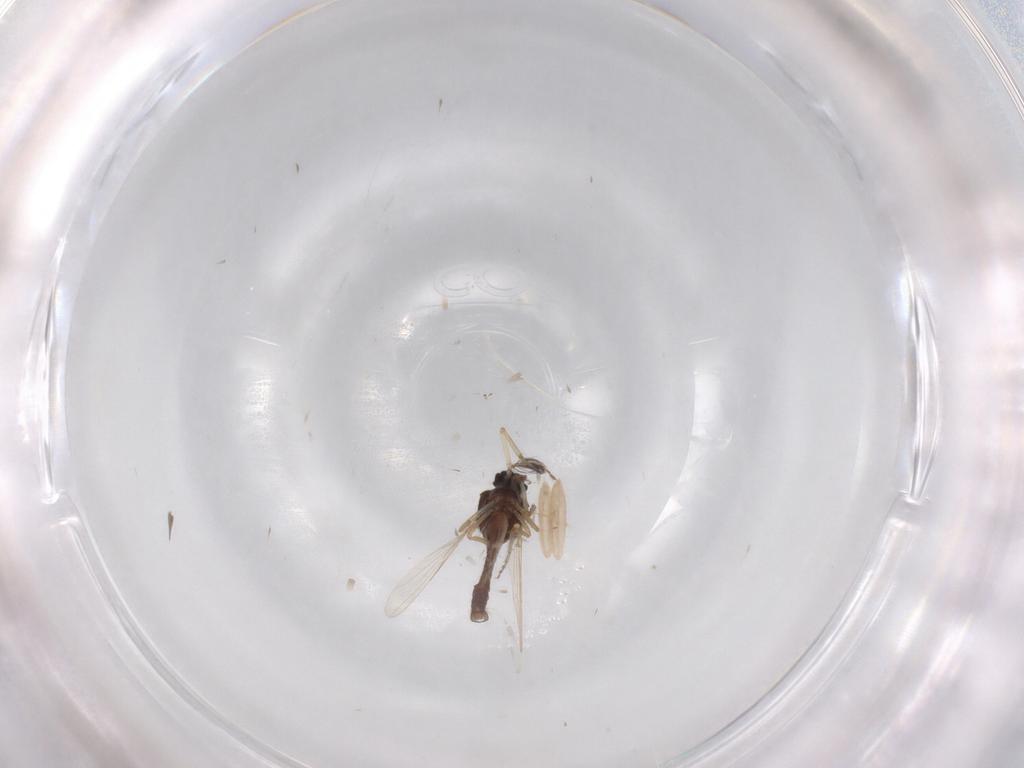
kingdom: Animalia
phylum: Arthropoda
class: Insecta
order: Diptera
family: Ceratopogonidae
